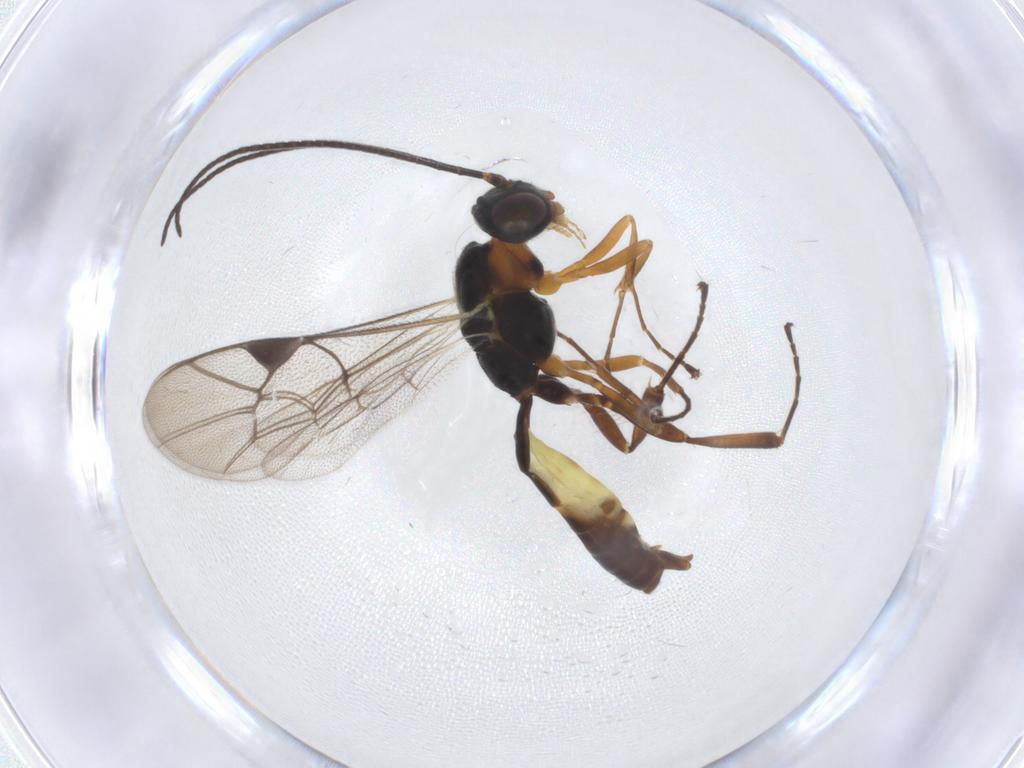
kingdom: Animalia
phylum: Arthropoda
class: Insecta
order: Hymenoptera
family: Ichneumonidae
